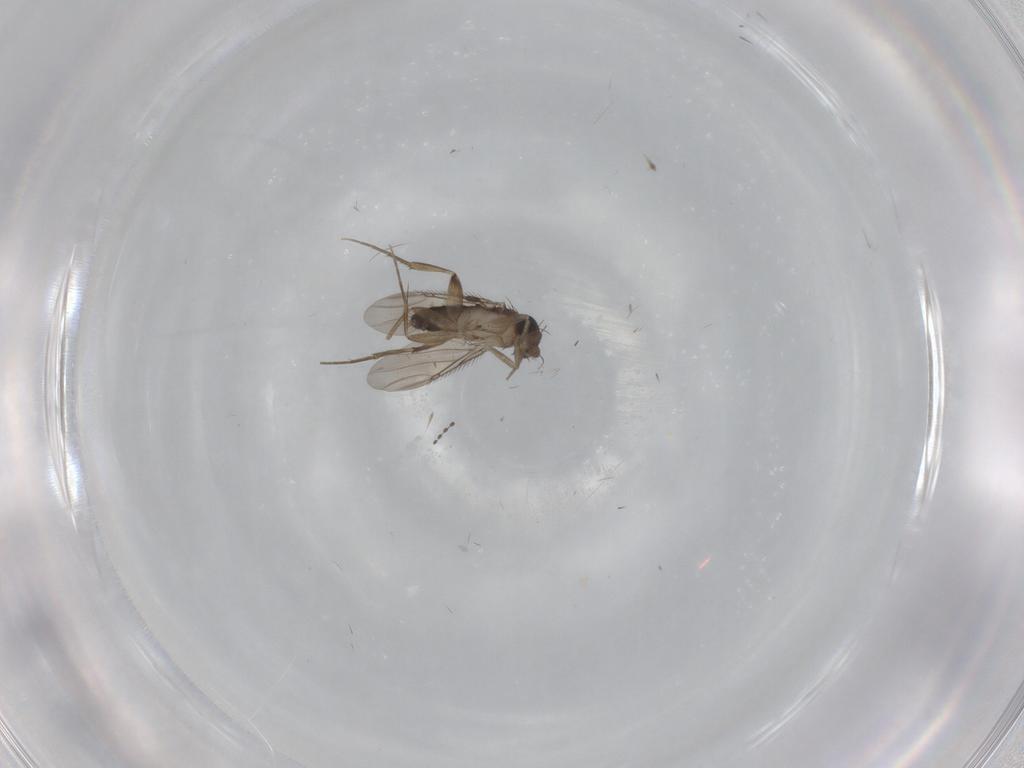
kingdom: Animalia
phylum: Arthropoda
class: Insecta
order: Diptera
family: Phoridae
